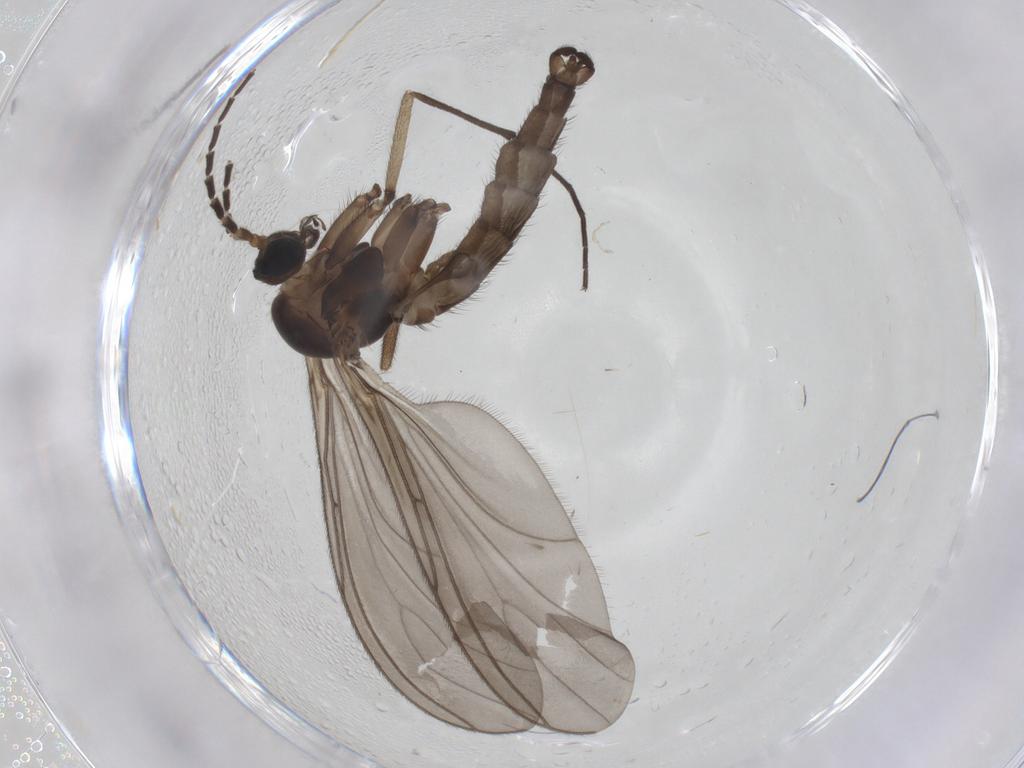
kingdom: Animalia
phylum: Arthropoda
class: Insecta
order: Diptera
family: Sciaridae
